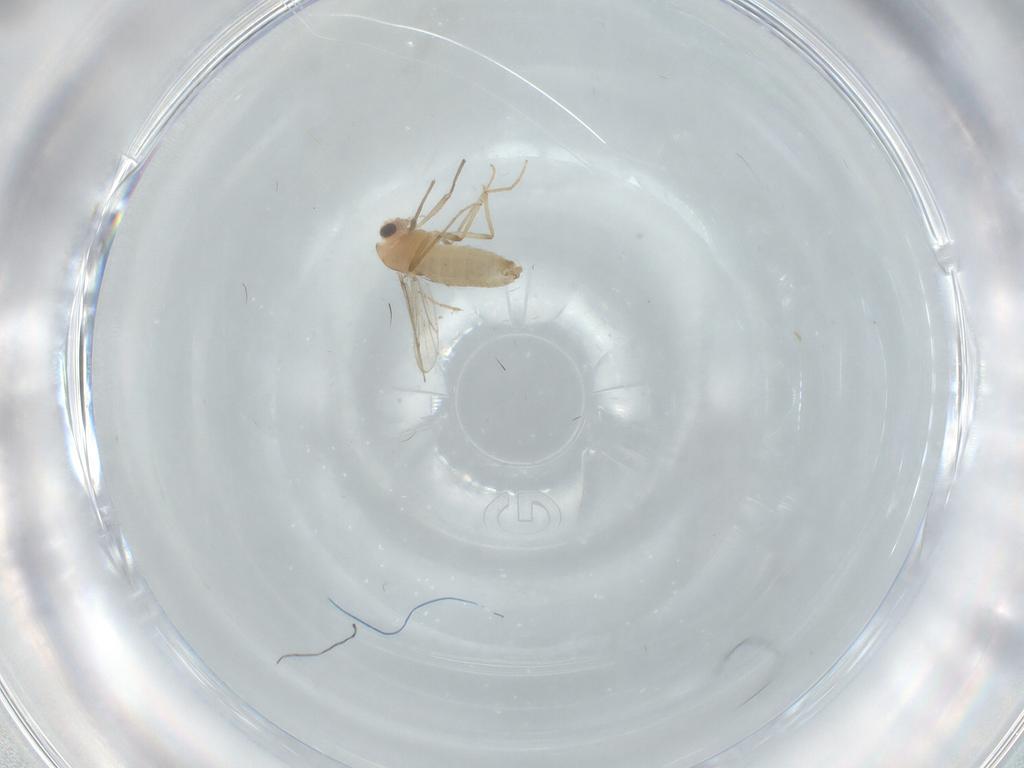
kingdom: Animalia
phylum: Arthropoda
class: Insecta
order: Diptera
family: Chironomidae
